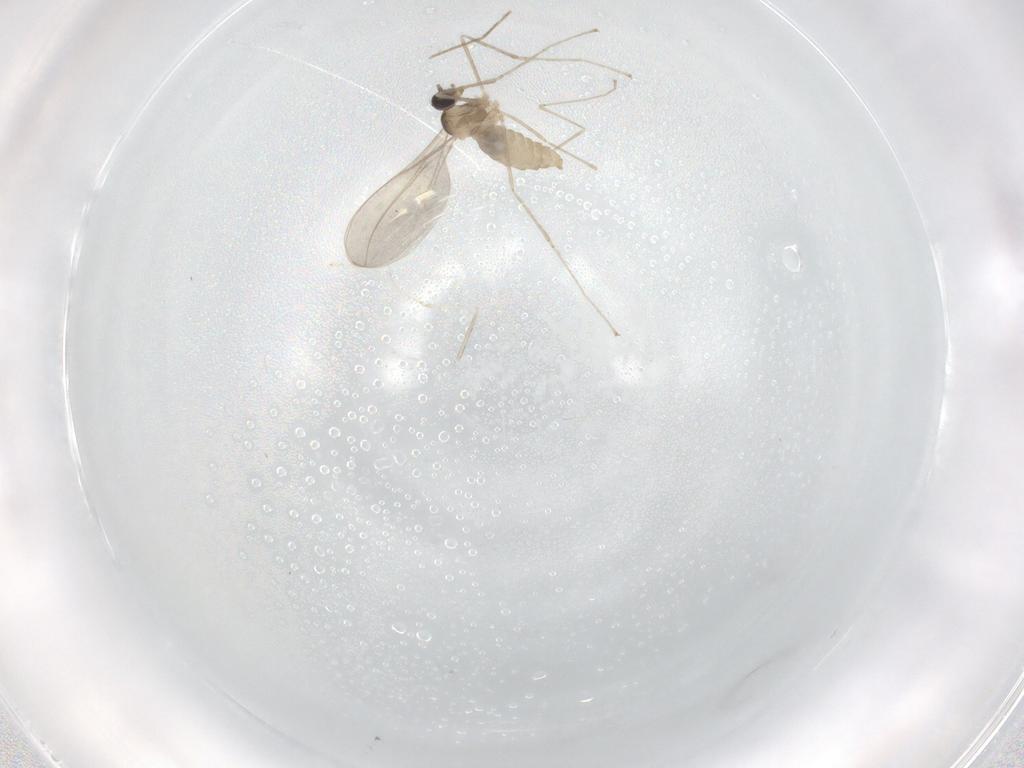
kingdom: Animalia
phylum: Arthropoda
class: Insecta
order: Diptera
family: Cecidomyiidae
